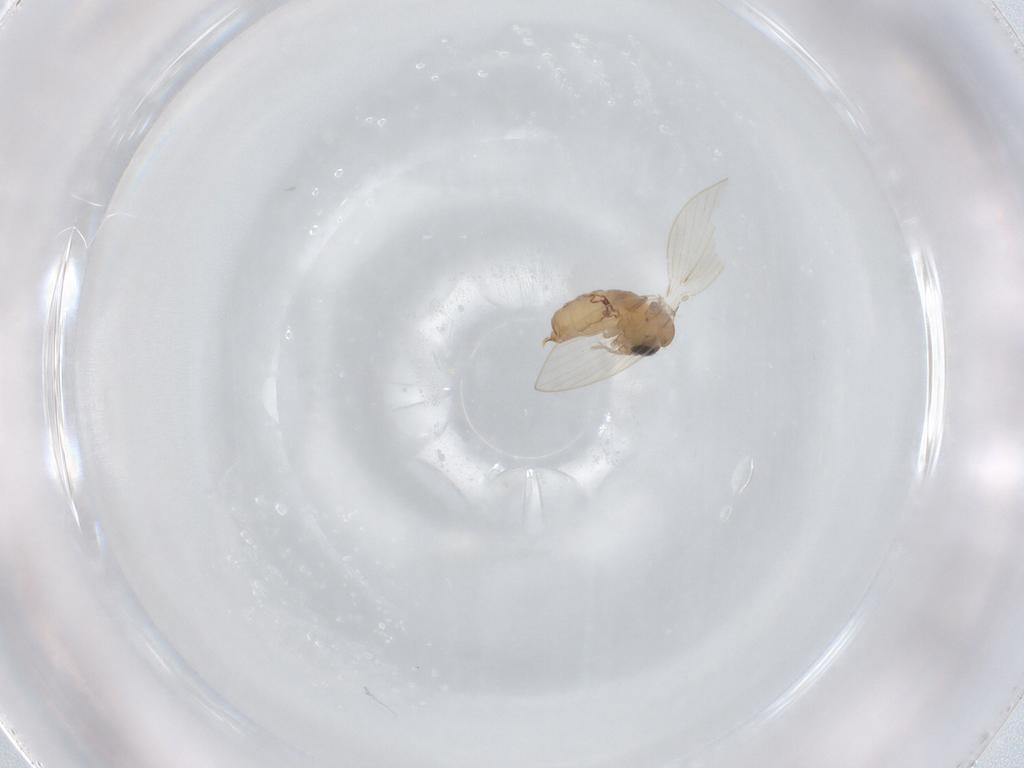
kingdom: Animalia
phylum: Arthropoda
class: Insecta
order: Diptera
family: Psychodidae
